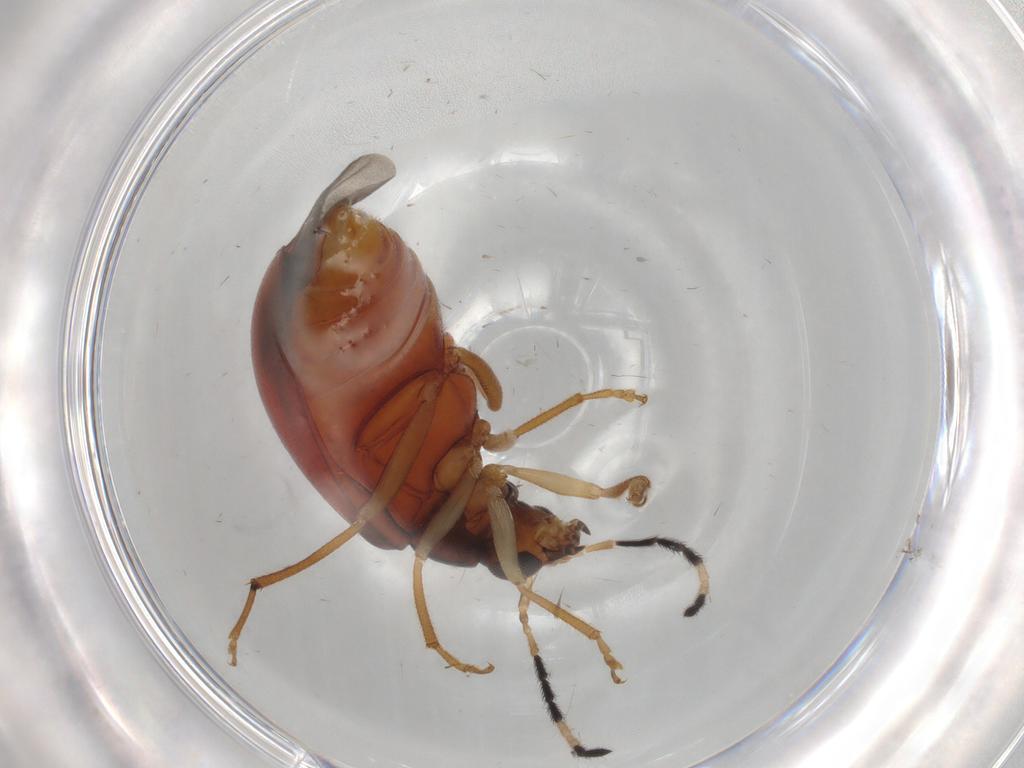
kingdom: Animalia
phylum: Arthropoda
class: Insecta
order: Coleoptera
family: Chrysomelidae
